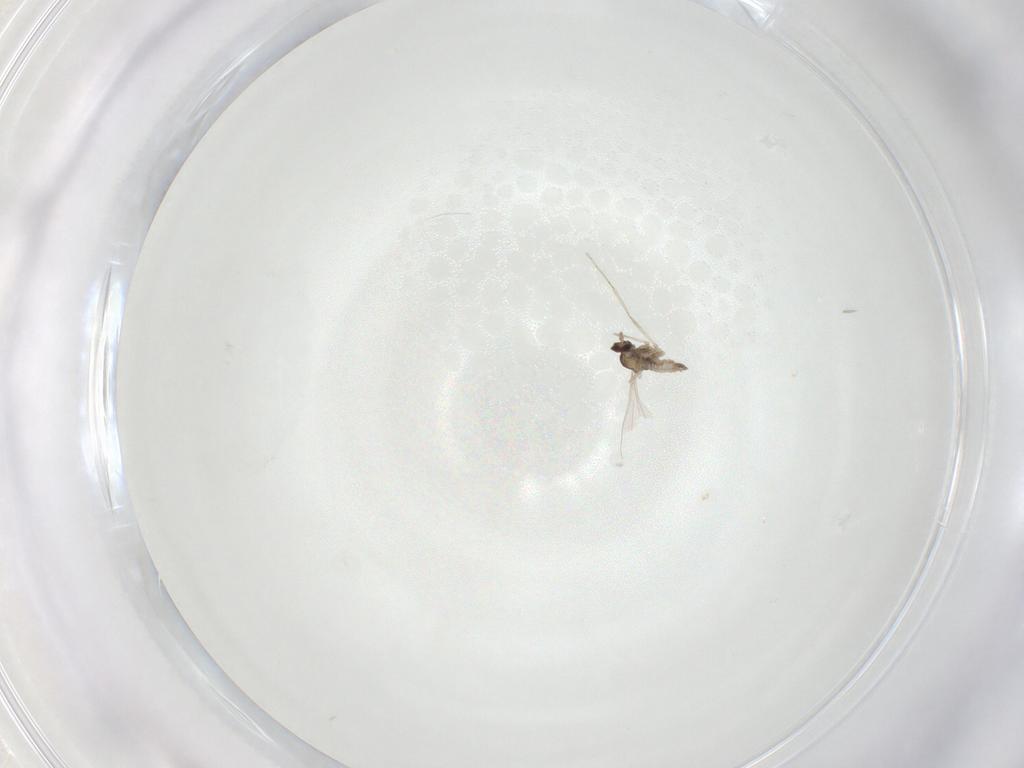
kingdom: Animalia
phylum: Arthropoda
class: Insecta
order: Diptera
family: Cecidomyiidae
